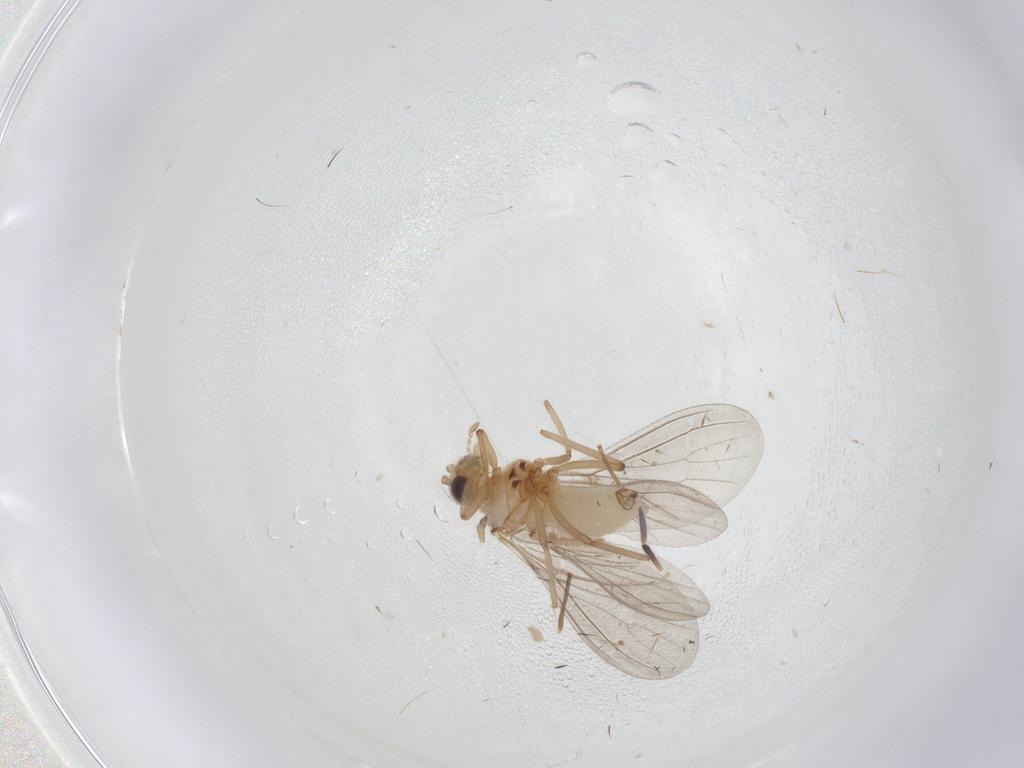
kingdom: Animalia
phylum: Arthropoda
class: Insecta
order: Neuroptera
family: Coniopterygidae
